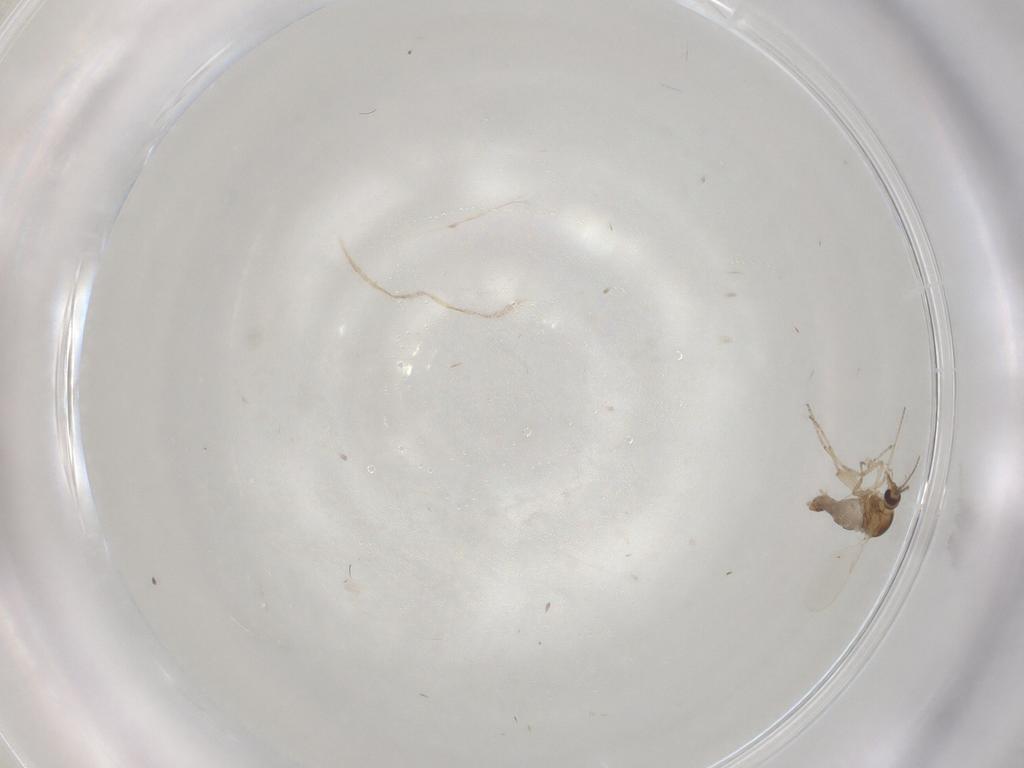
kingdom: Animalia
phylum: Arthropoda
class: Insecta
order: Diptera
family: Ceratopogonidae
